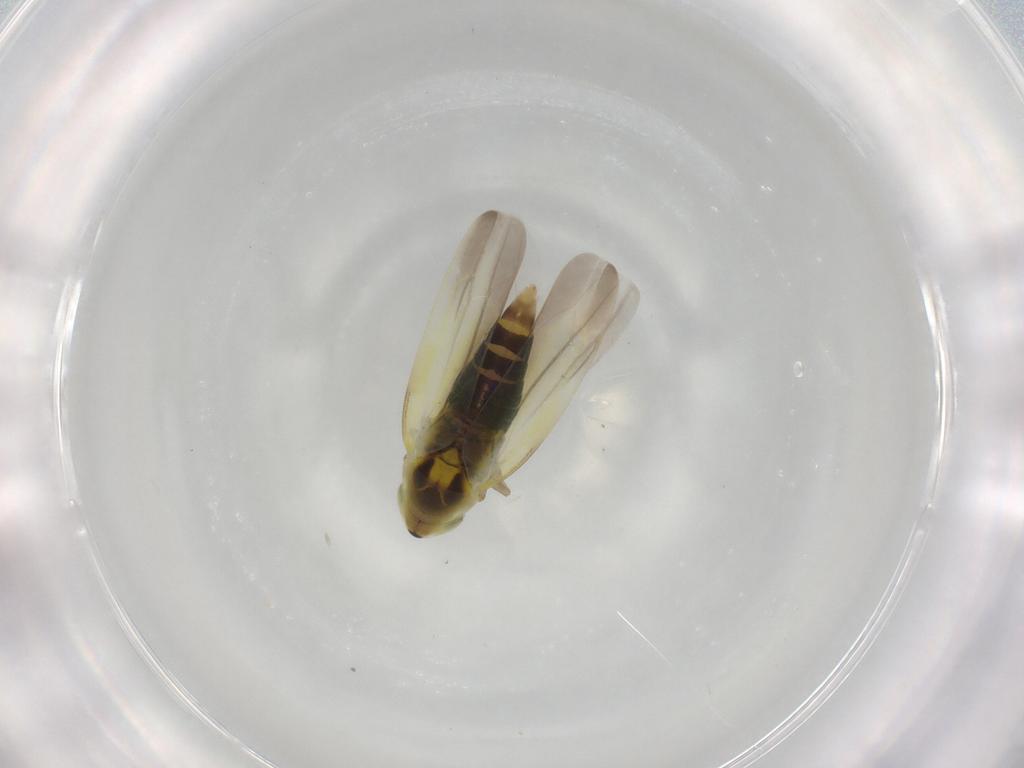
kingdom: Animalia
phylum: Arthropoda
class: Insecta
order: Hemiptera
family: Cicadellidae
